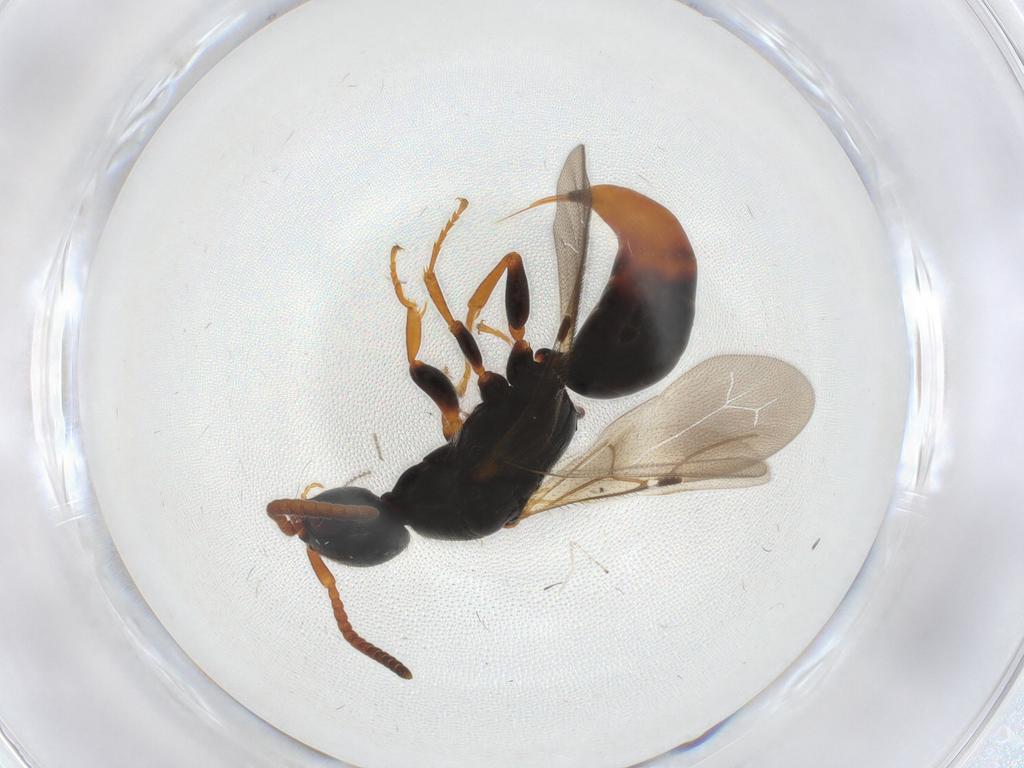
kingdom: Animalia
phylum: Arthropoda
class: Insecta
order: Hymenoptera
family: Bethylidae
